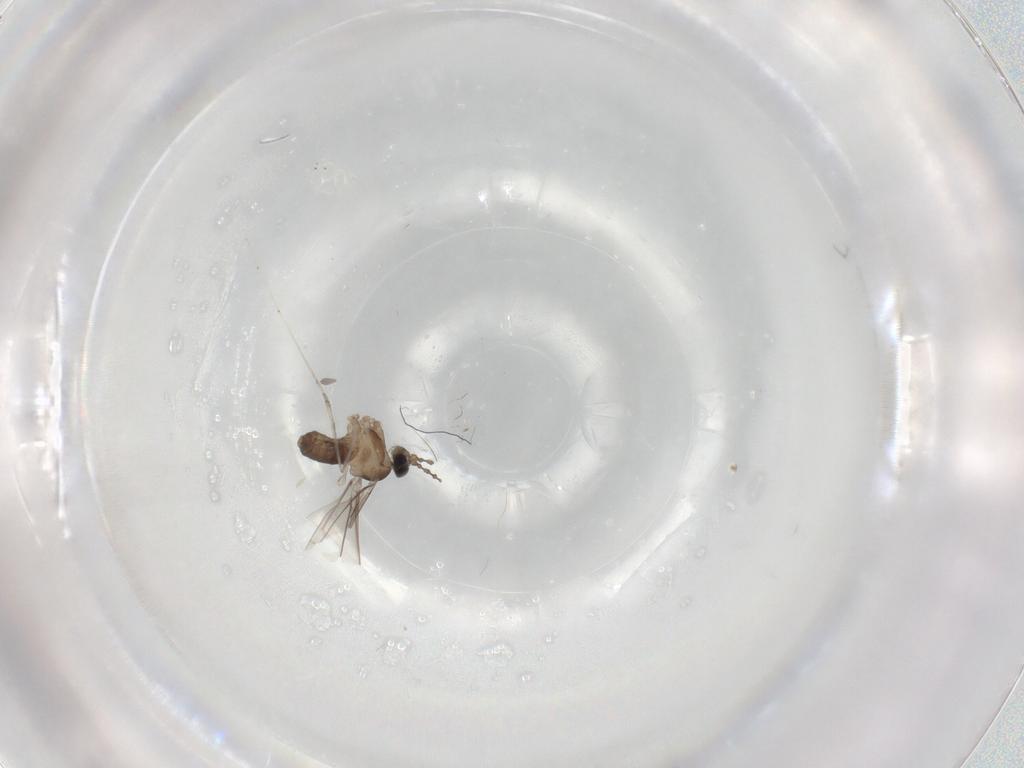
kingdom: Animalia
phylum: Arthropoda
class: Insecta
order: Diptera
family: Cecidomyiidae
